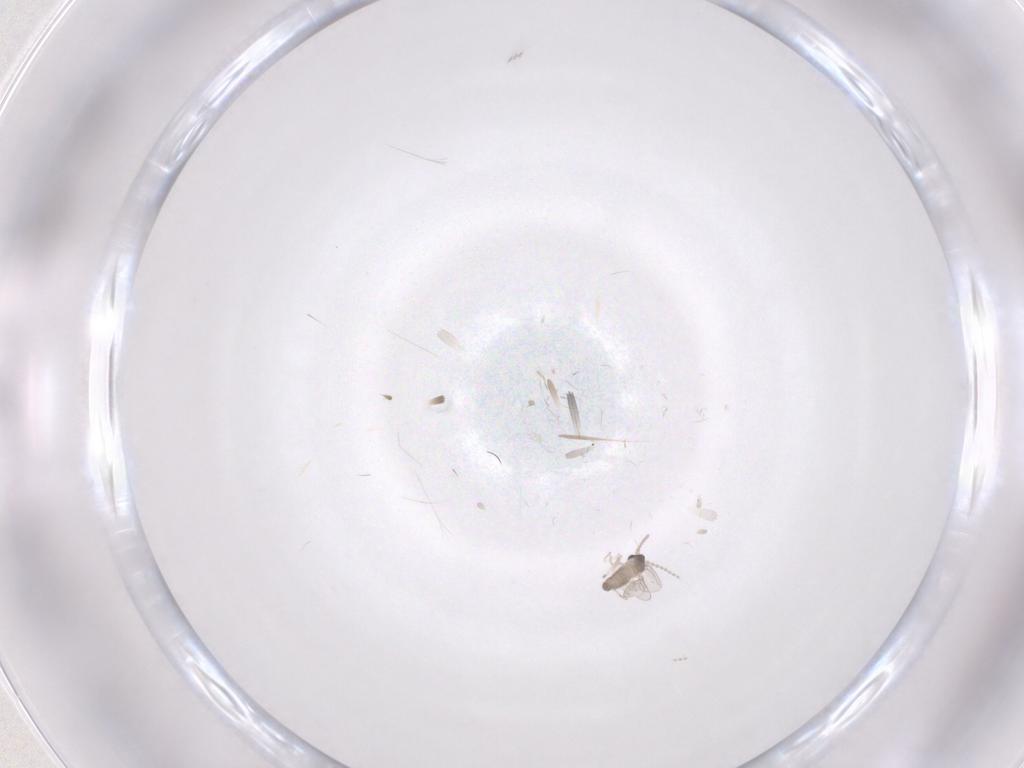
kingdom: Animalia
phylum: Arthropoda
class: Insecta
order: Diptera
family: Cecidomyiidae
